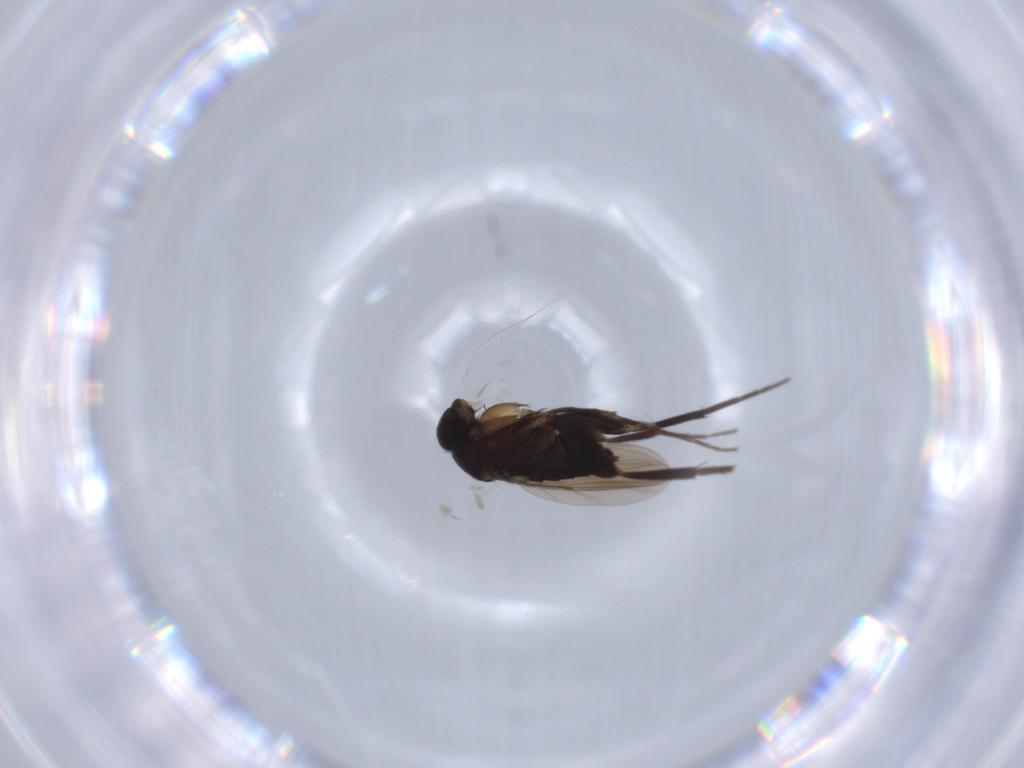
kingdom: Animalia
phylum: Arthropoda
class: Insecta
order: Diptera
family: Phoridae
